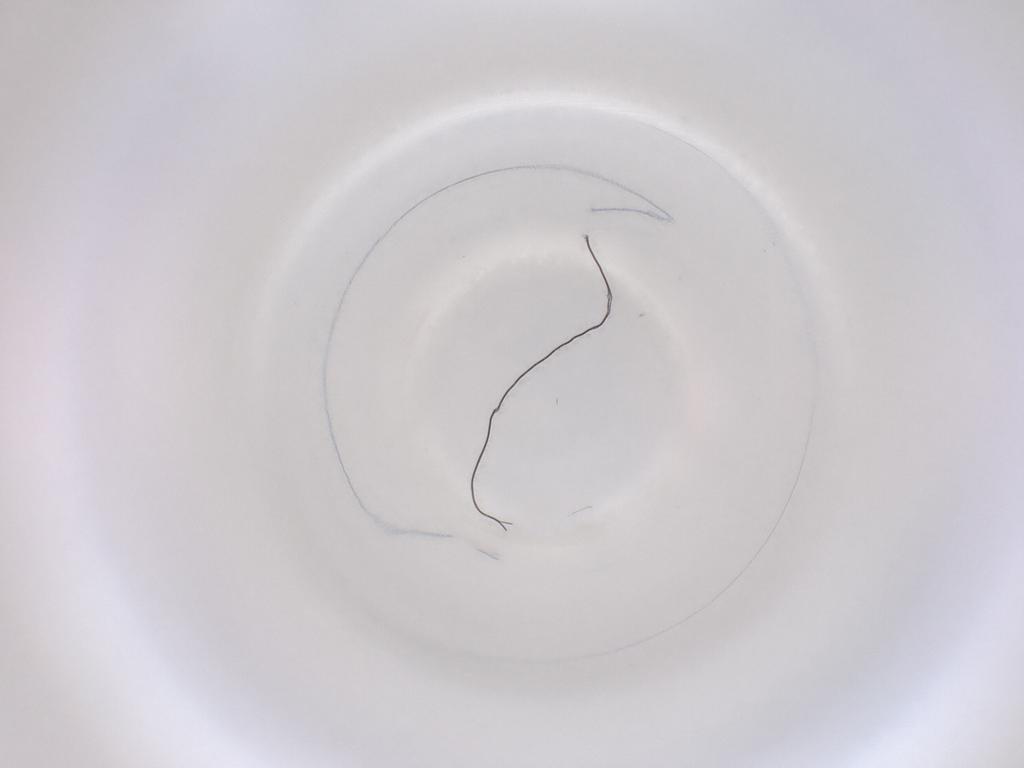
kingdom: Animalia
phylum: Arthropoda
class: Insecta
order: Diptera
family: Cecidomyiidae
